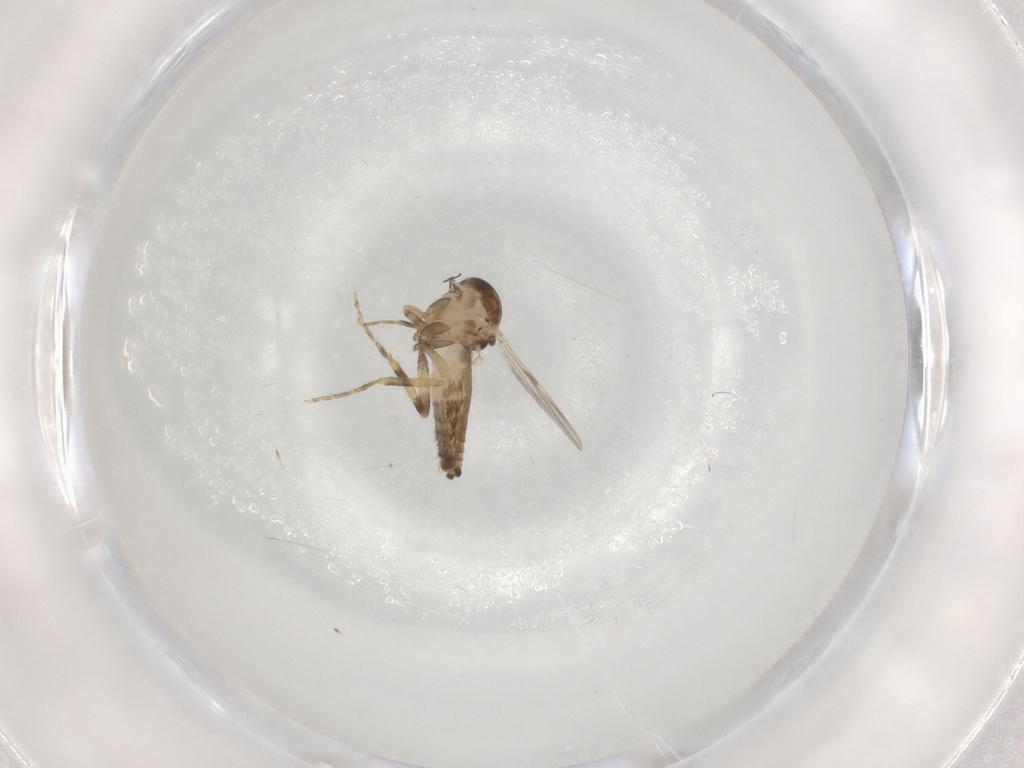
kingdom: Animalia
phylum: Arthropoda
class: Insecta
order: Diptera
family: Ceratopogonidae
